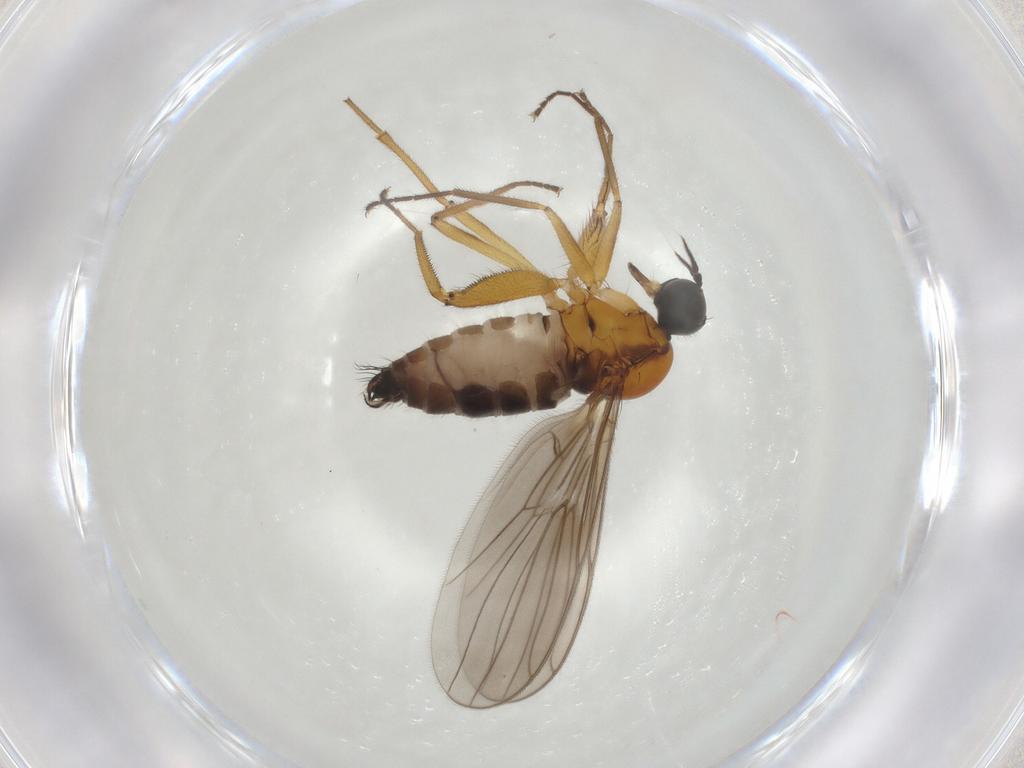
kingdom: Animalia
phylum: Arthropoda
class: Insecta
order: Diptera
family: Hybotidae
